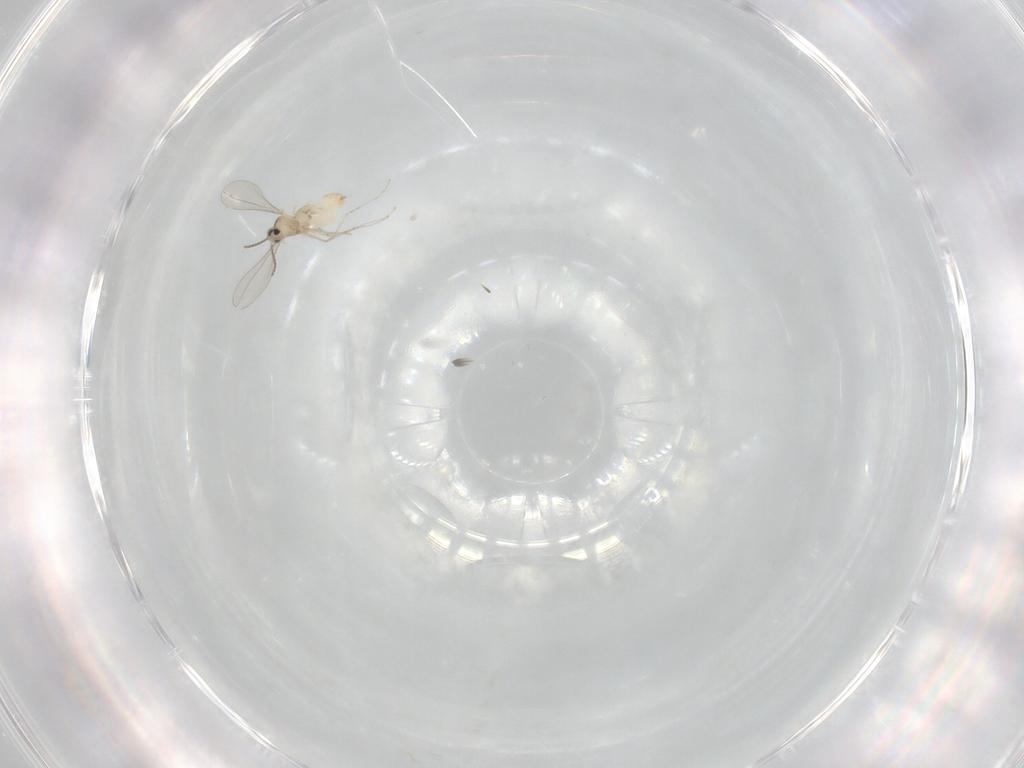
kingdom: Animalia
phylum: Arthropoda
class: Insecta
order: Diptera
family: Cecidomyiidae
